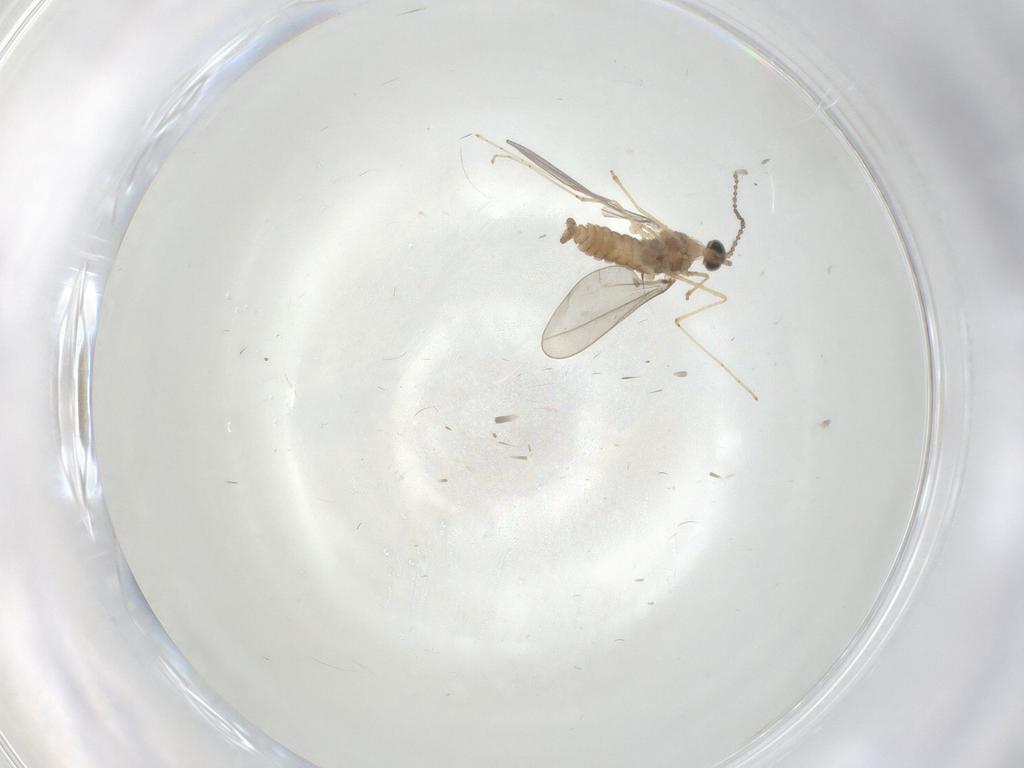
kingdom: Animalia
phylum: Arthropoda
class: Insecta
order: Diptera
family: Cecidomyiidae
